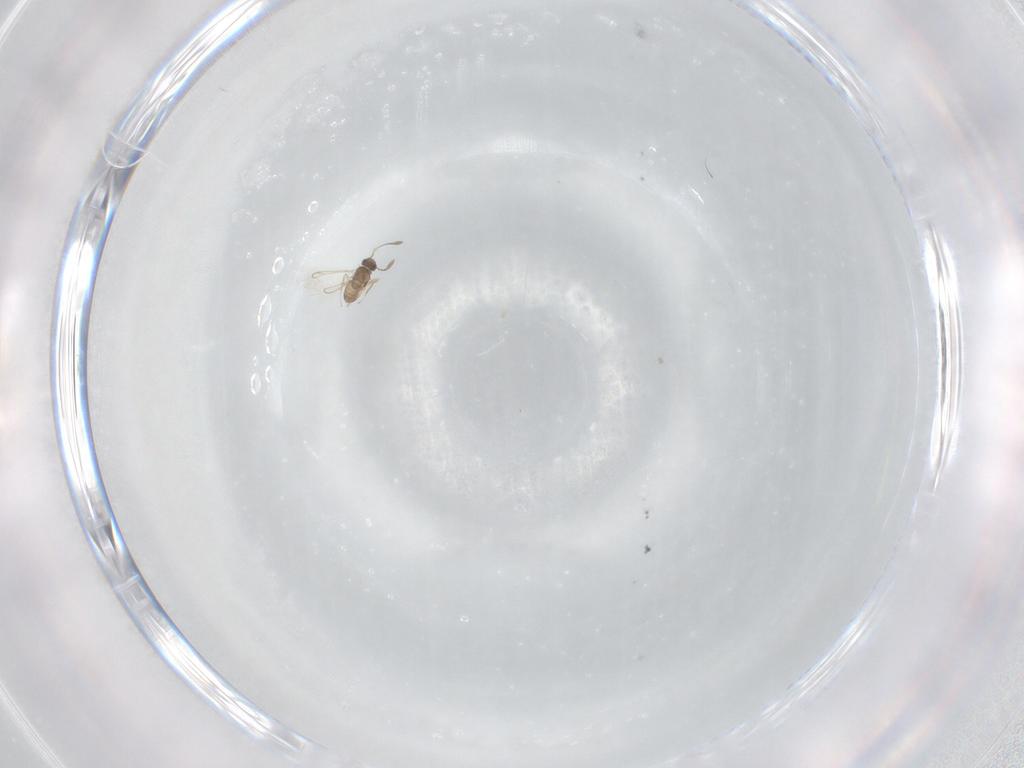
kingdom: Animalia
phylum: Arthropoda
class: Insecta
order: Hymenoptera
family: Mymaridae
